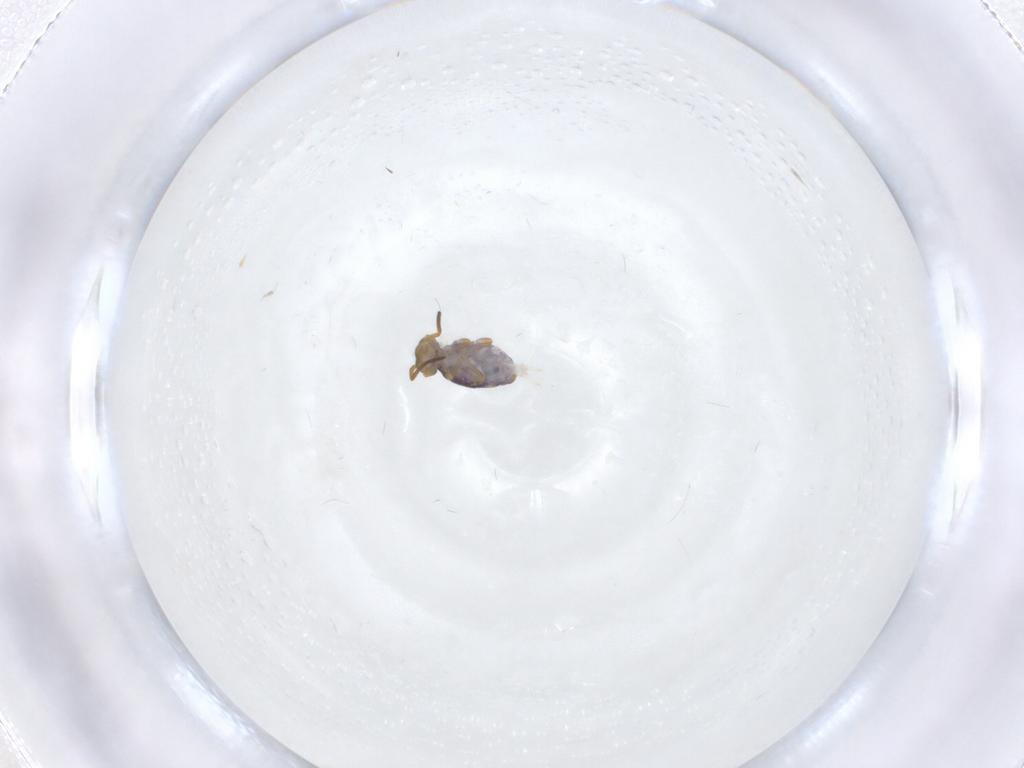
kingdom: Animalia
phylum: Arthropoda
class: Collembola
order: Symphypleona
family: Katiannidae
